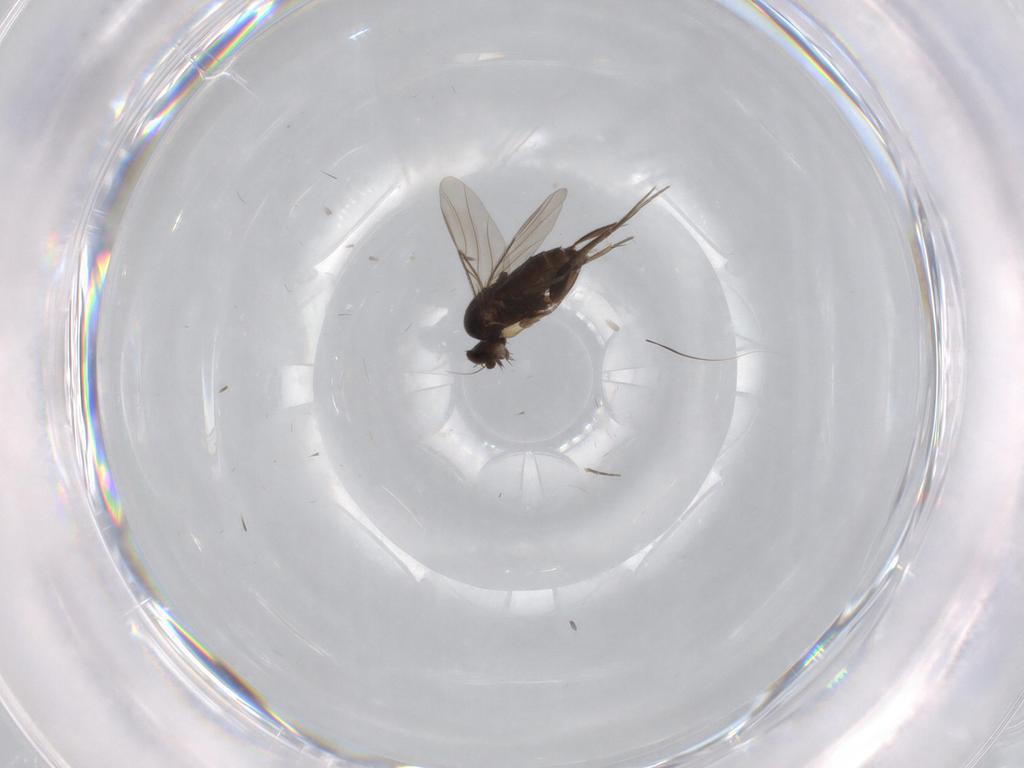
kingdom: Animalia
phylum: Arthropoda
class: Insecta
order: Diptera
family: Phoridae
